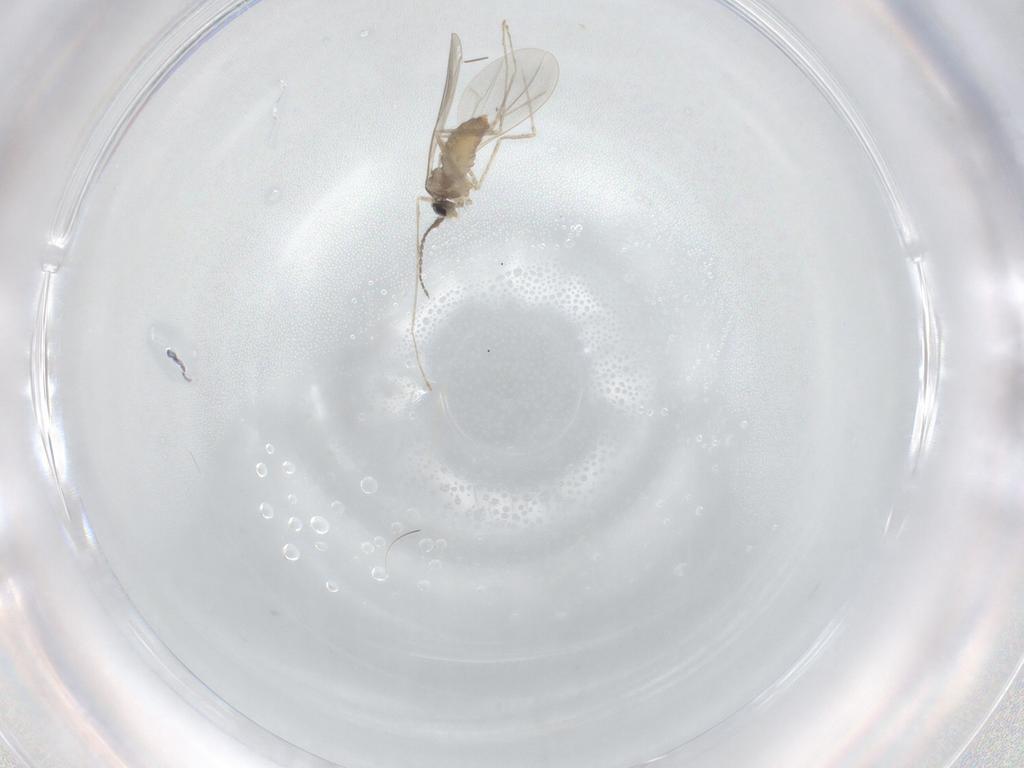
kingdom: Animalia
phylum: Arthropoda
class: Insecta
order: Diptera
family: Cecidomyiidae
